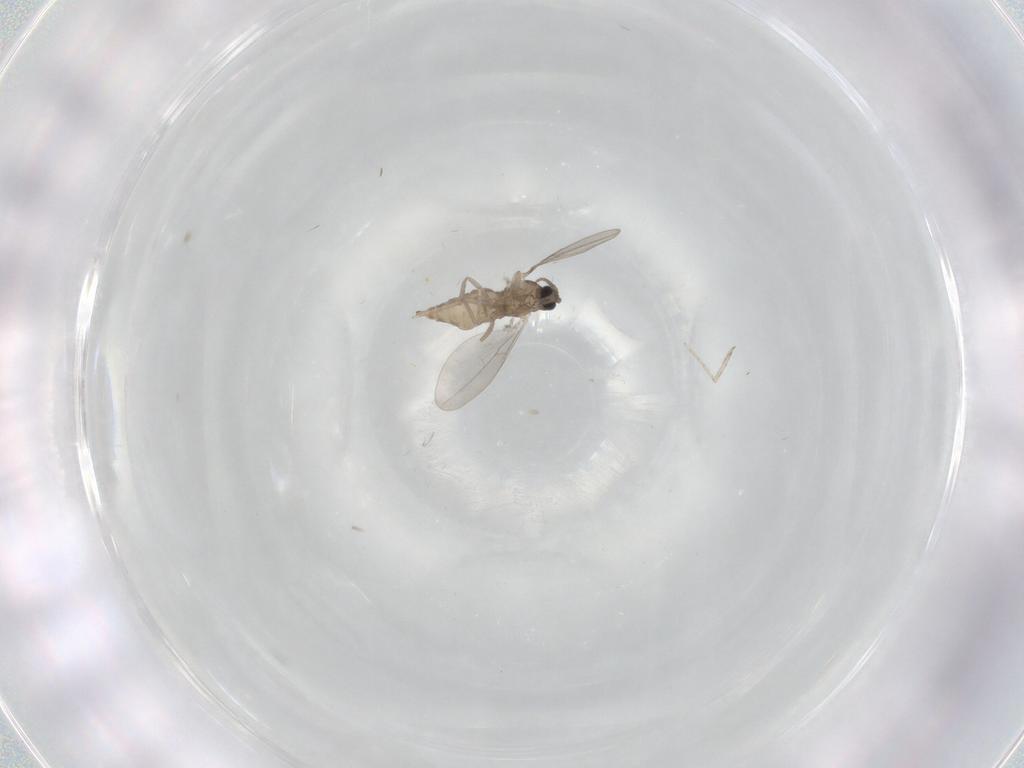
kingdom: Animalia
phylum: Arthropoda
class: Insecta
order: Diptera
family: Cecidomyiidae
